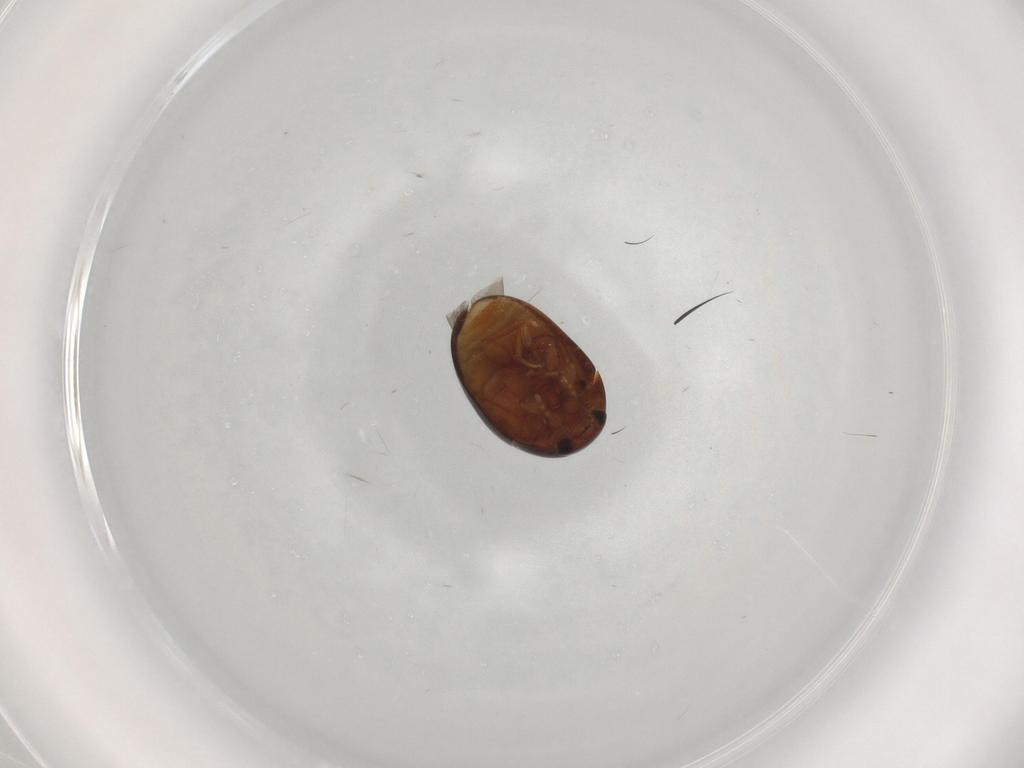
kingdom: Animalia
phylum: Arthropoda
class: Insecta
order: Coleoptera
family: Phalacridae
